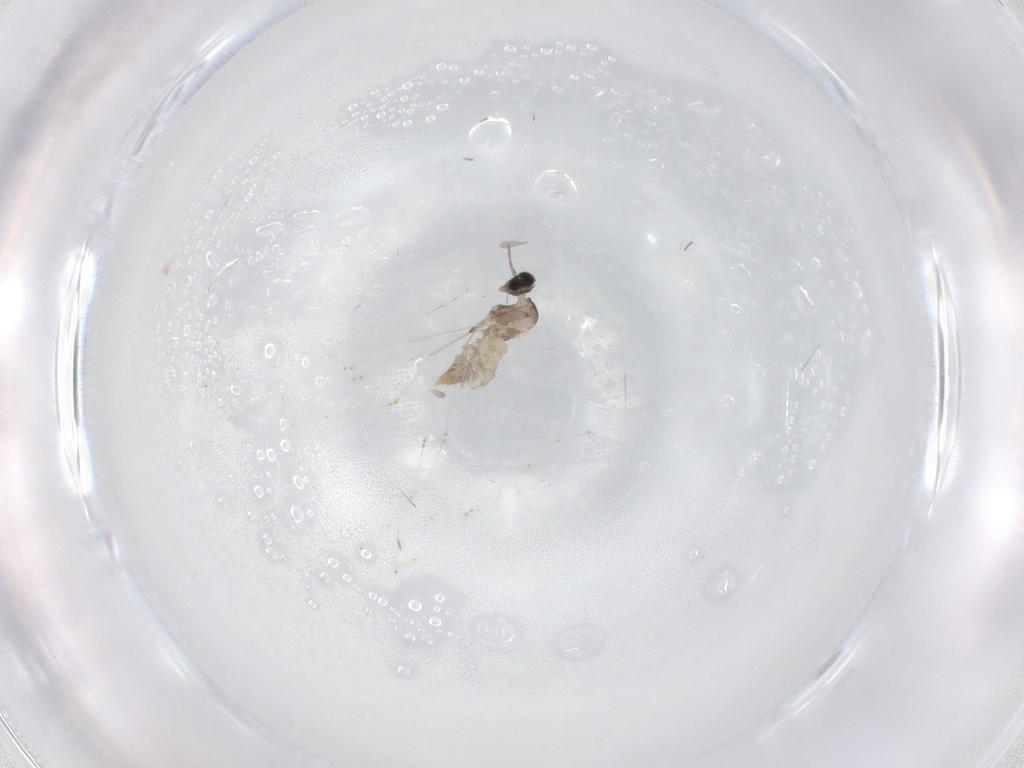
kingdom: Animalia
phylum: Arthropoda
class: Insecta
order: Diptera
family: Cecidomyiidae
